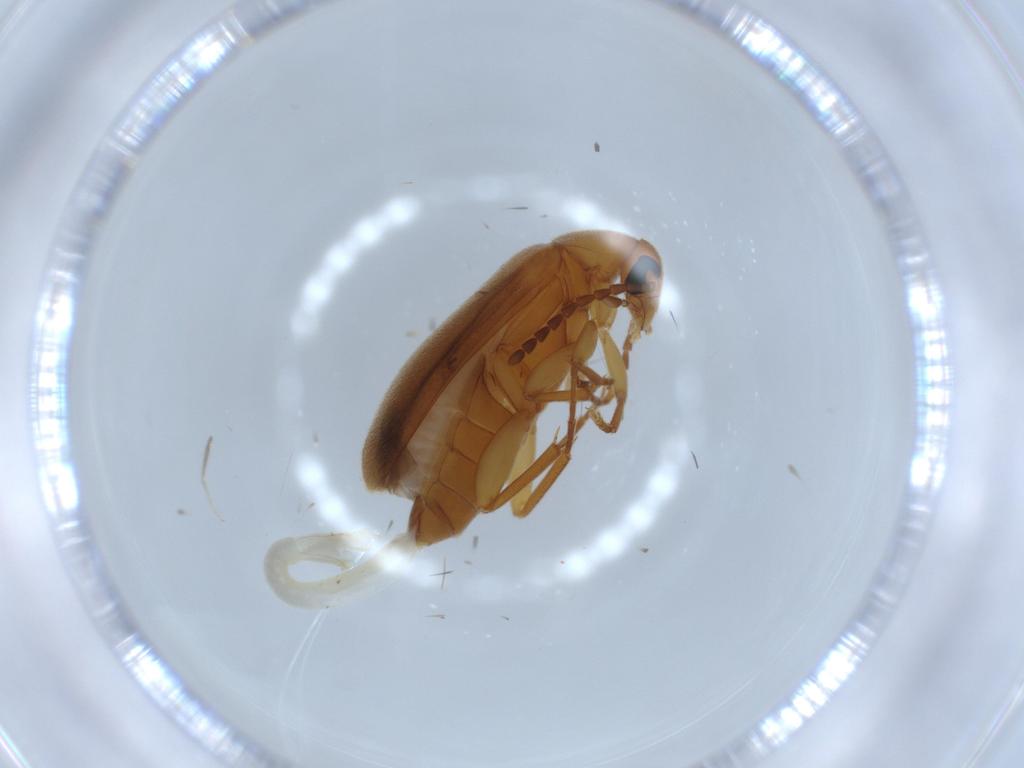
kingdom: Animalia
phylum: Arthropoda
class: Insecta
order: Coleoptera
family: Scraptiidae
